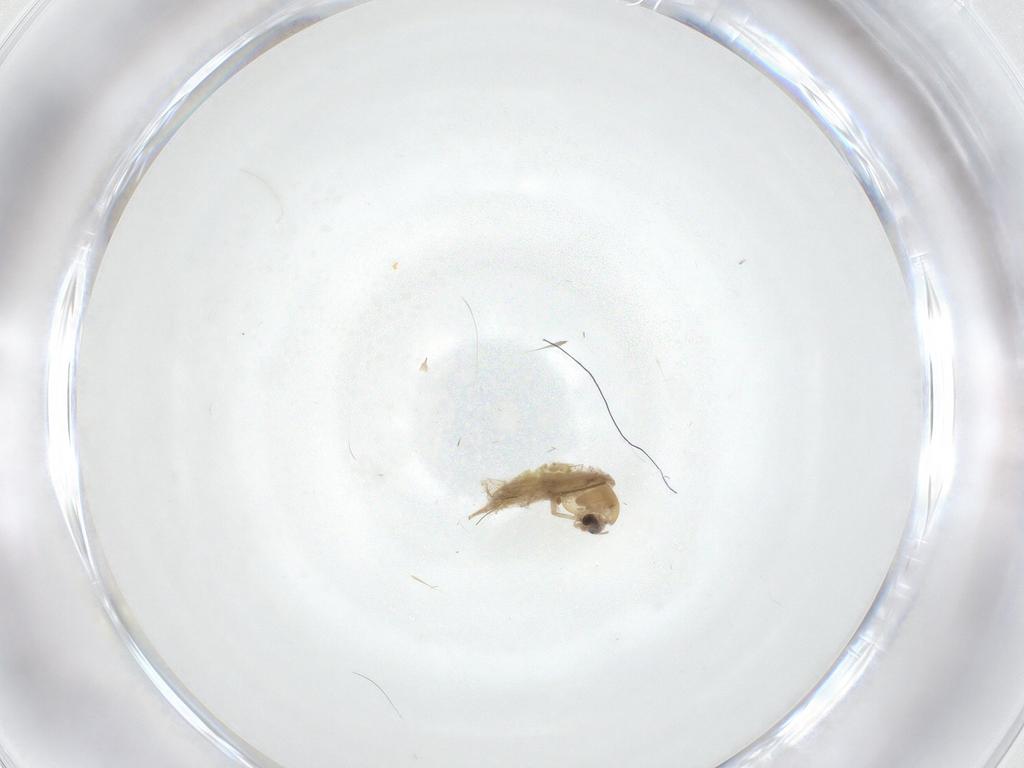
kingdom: Animalia
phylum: Arthropoda
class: Insecta
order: Diptera
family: Chironomidae
